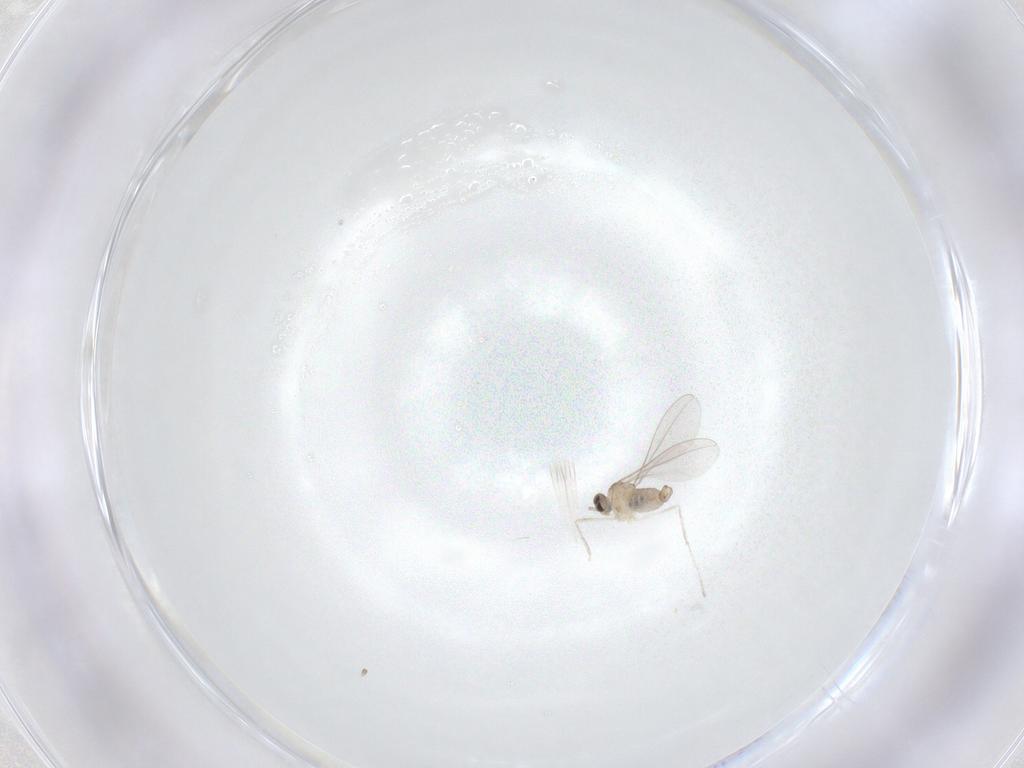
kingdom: Animalia
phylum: Arthropoda
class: Insecta
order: Diptera
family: Cecidomyiidae
